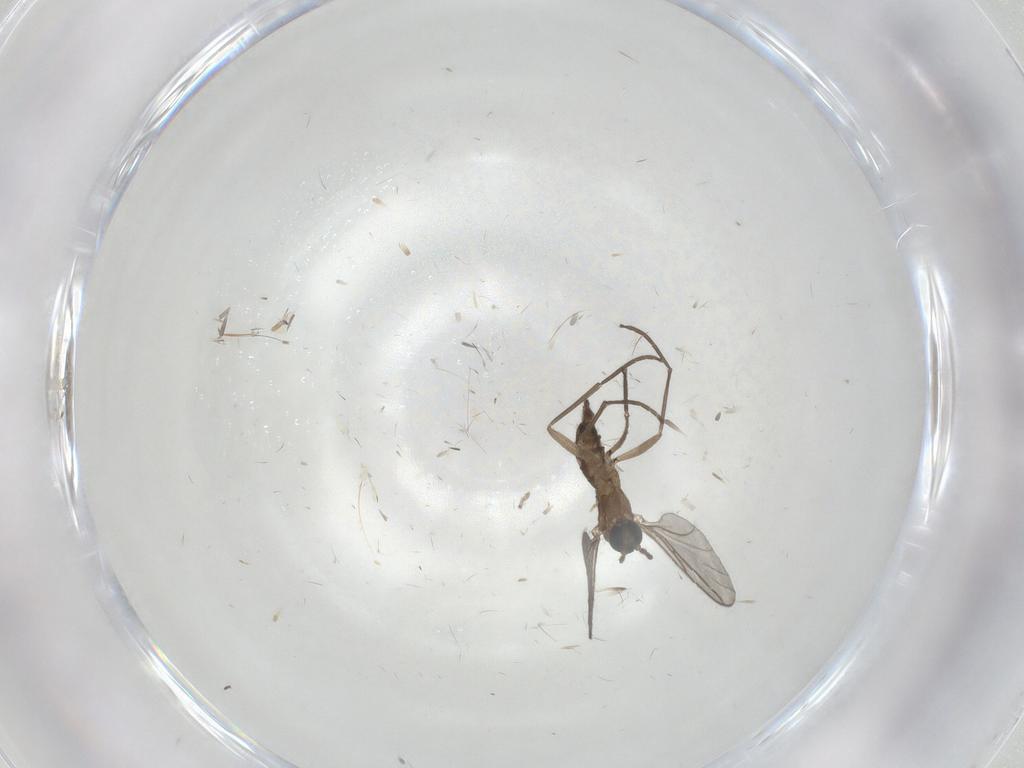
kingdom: Animalia
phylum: Arthropoda
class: Insecta
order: Diptera
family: Sciaridae
